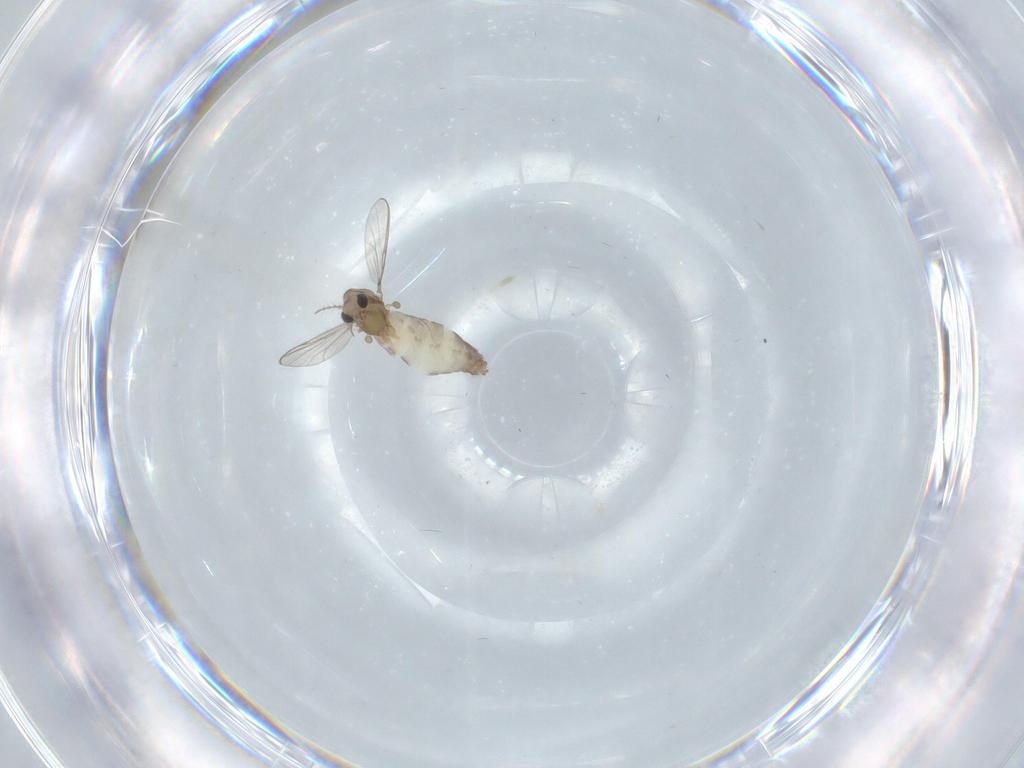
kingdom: Animalia
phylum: Arthropoda
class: Insecta
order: Diptera
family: Chironomidae
